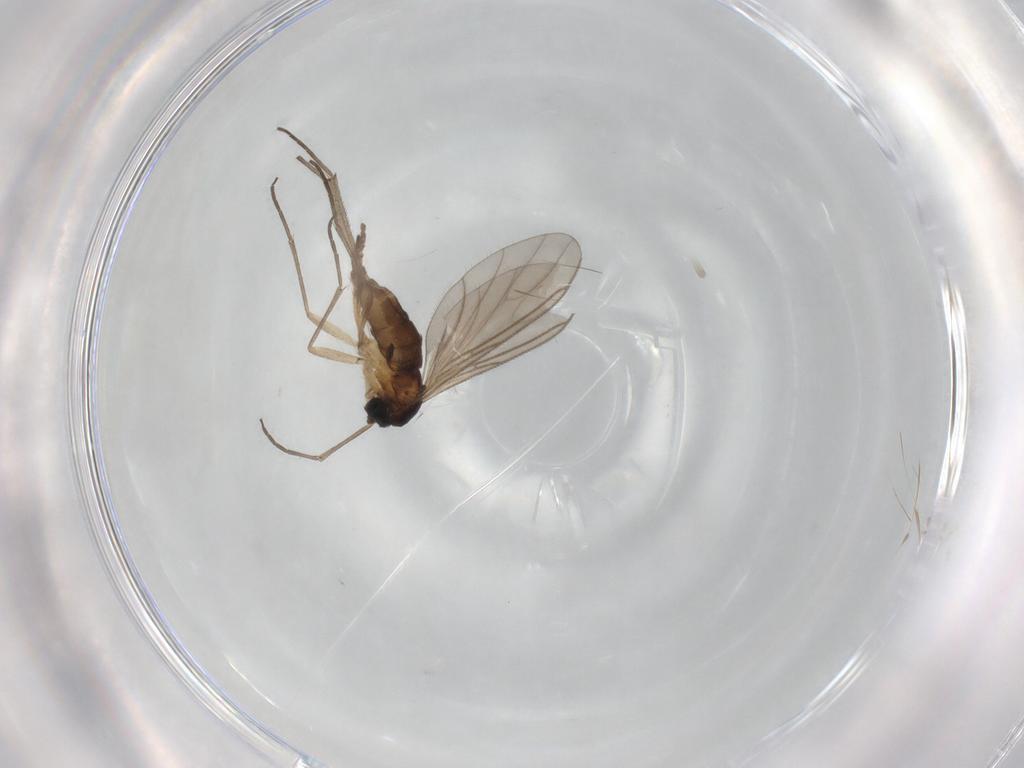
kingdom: Animalia
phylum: Arthropoda
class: Insecta
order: Diptera
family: Sciaridae
